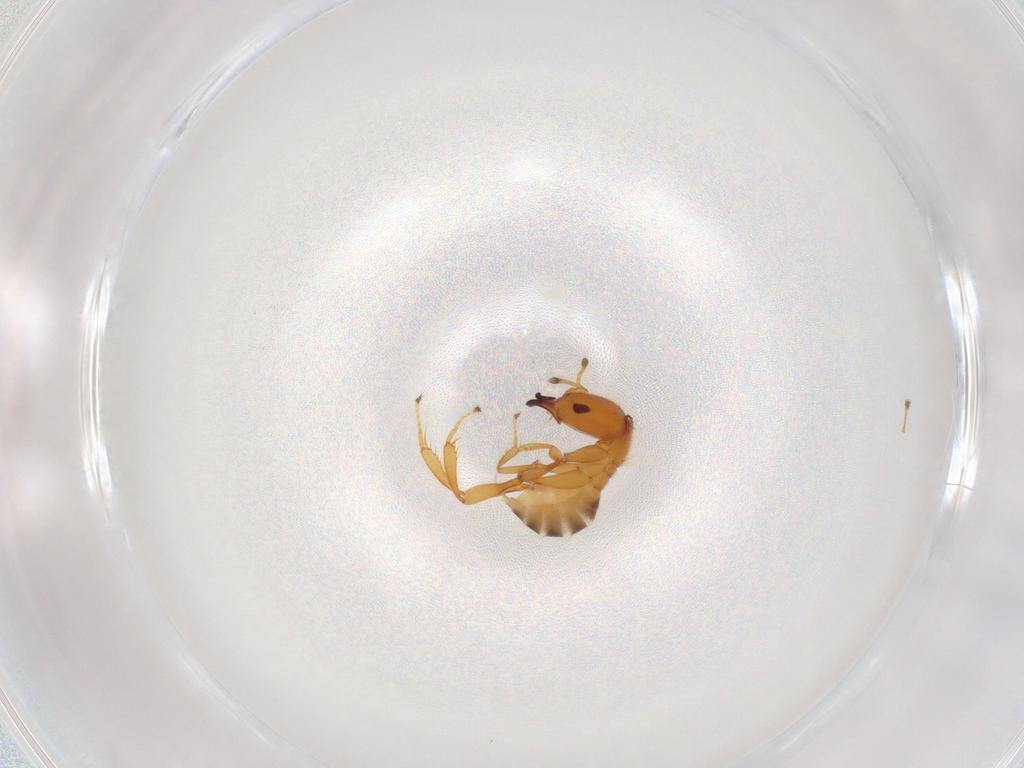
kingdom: Animalia
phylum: Arthropoda
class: Insecta
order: Hymenoptera
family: Pteromalidae
